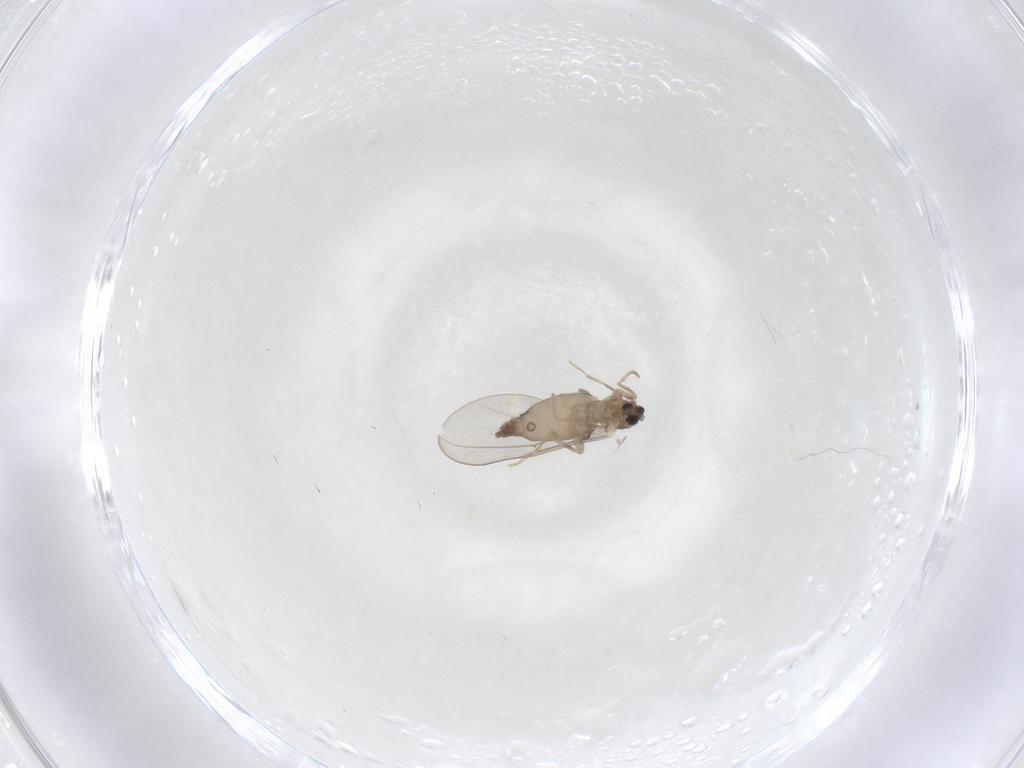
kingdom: Animalia
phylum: Arthropoda
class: Insecta
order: Diptera
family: Cecidomyiidae
